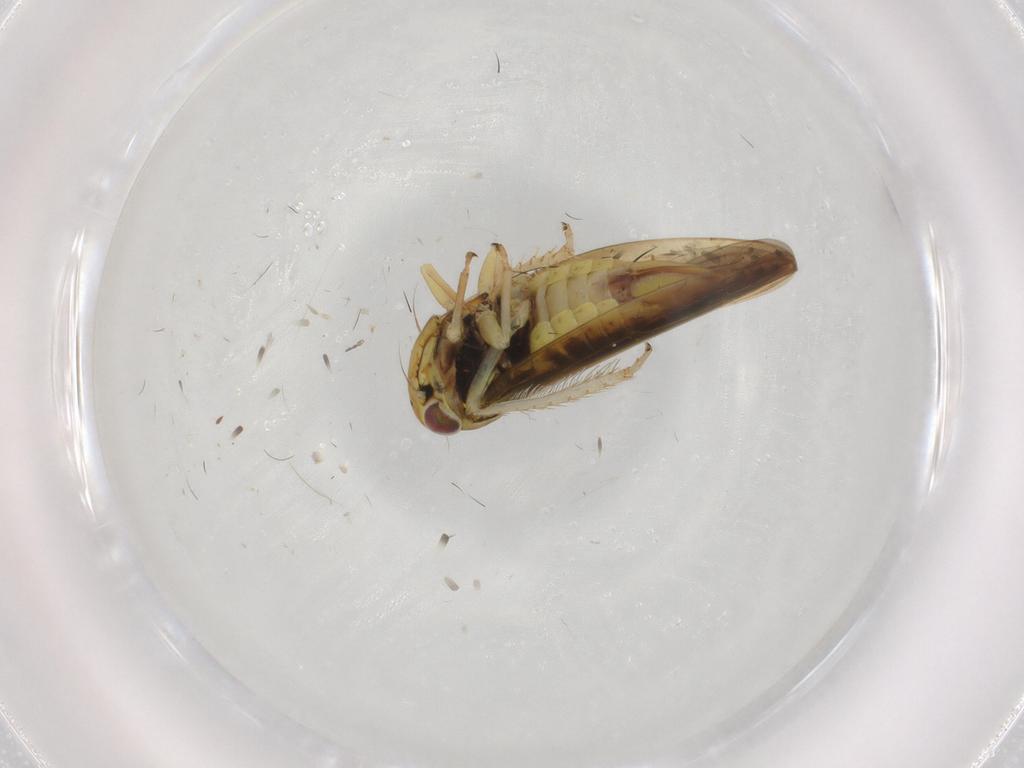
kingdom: Animalia
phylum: Arthropoda
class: Insecta
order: Hemiptera
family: Cicadellidae
